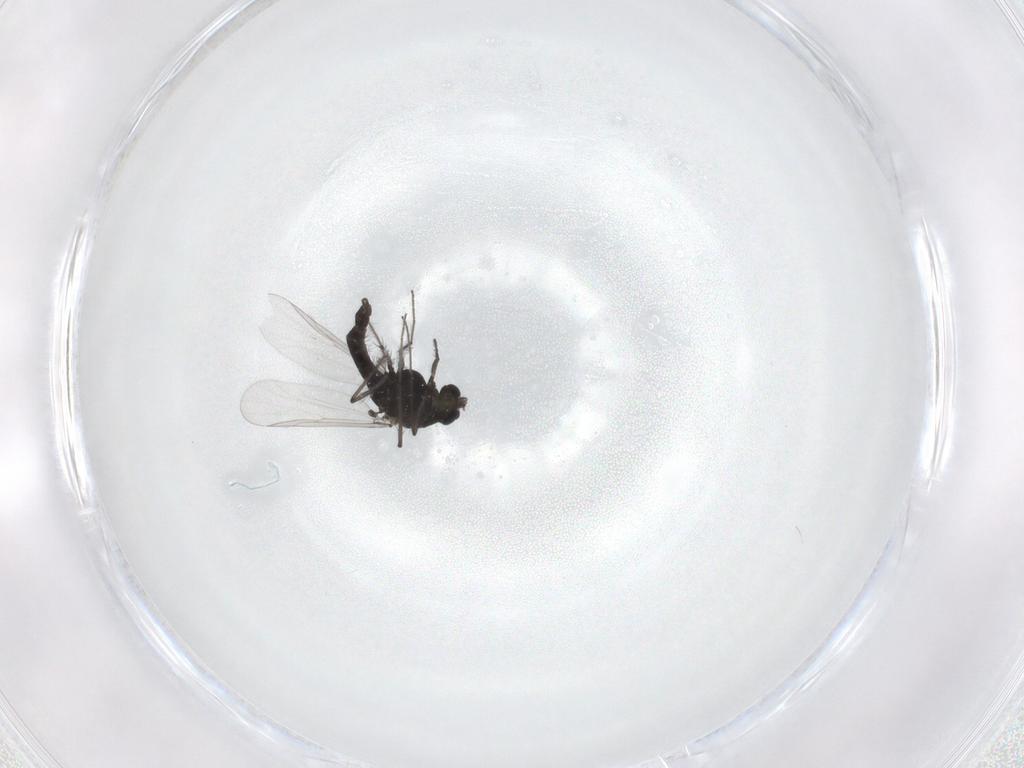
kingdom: Animalia
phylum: Arthropoda
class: Insecta
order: Diptera
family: Chironomidae
